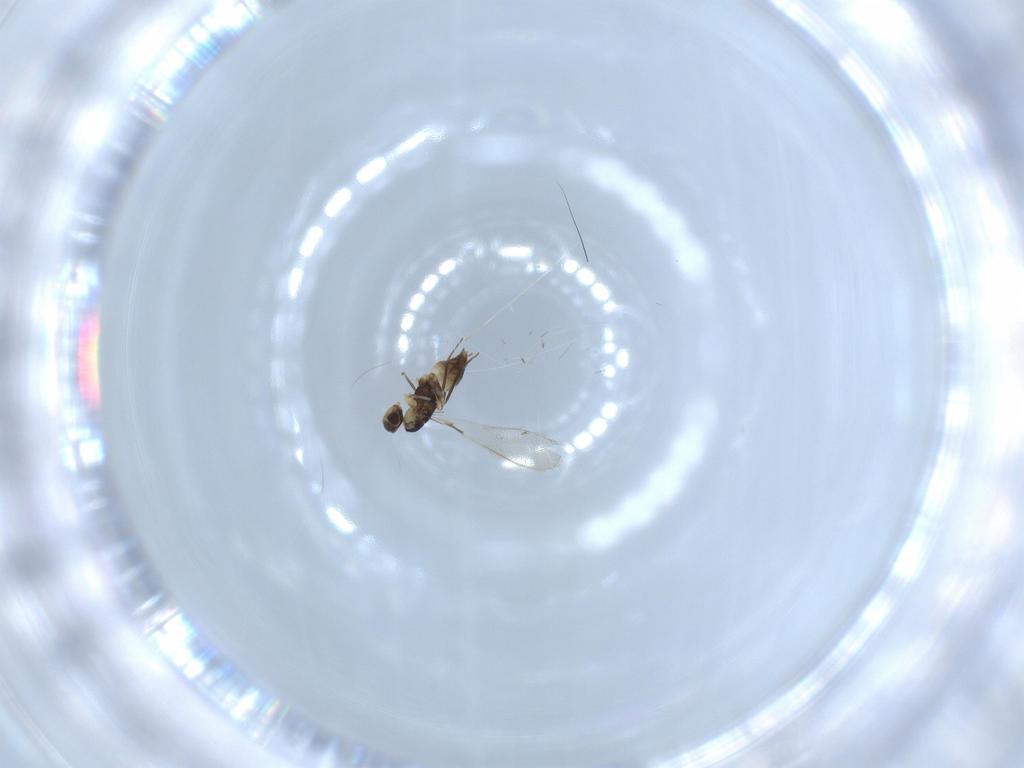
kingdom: Animalia
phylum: Arthropoda
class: Insecta
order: Hymenoptera
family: Mymaridae
